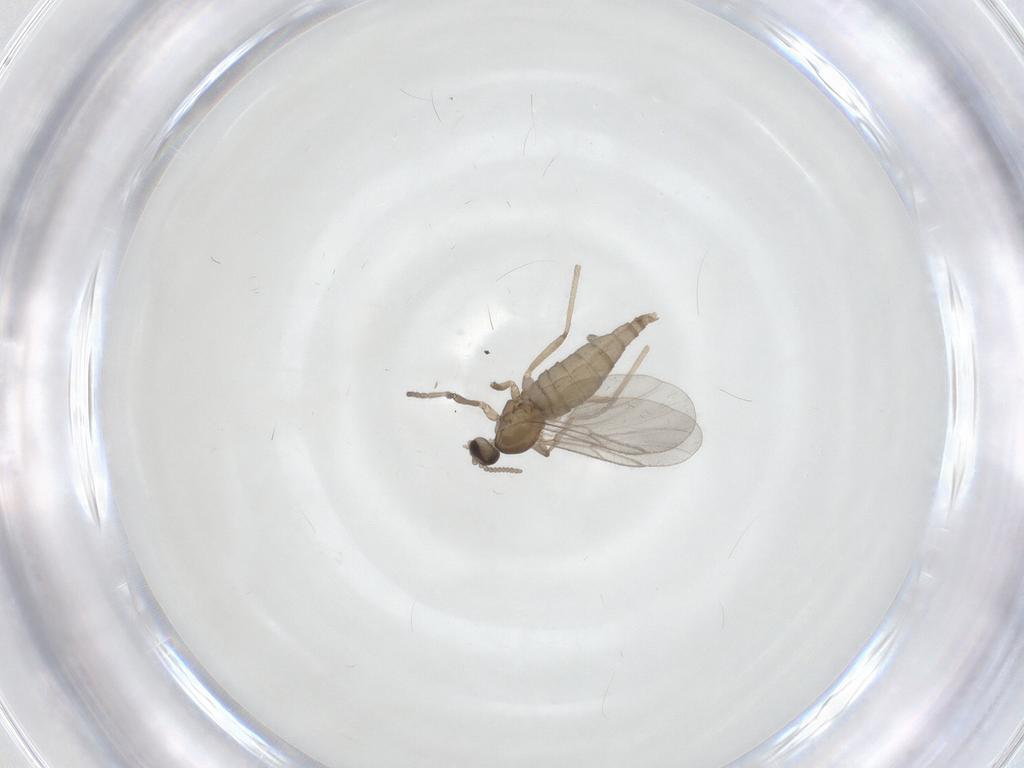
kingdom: Animalia
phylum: Arthropoda
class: Insecta
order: Diptera
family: Cecidomyiidae
